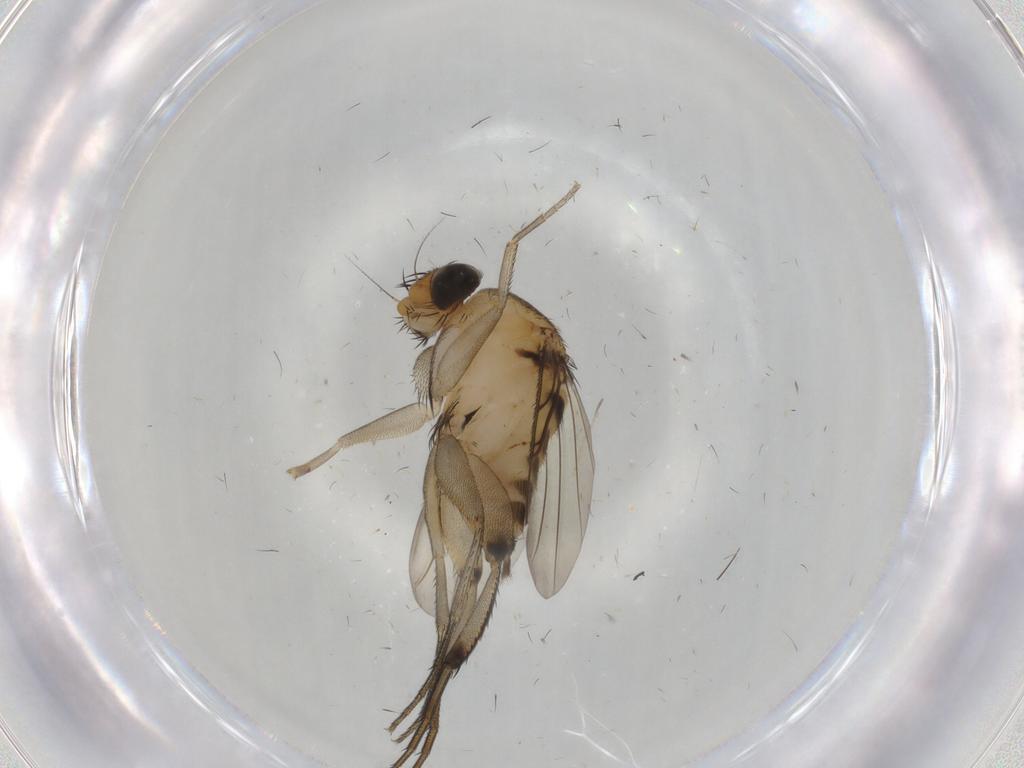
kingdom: Animalia
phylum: Arthropoda
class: Insecta
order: Diptera
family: Phoridae
